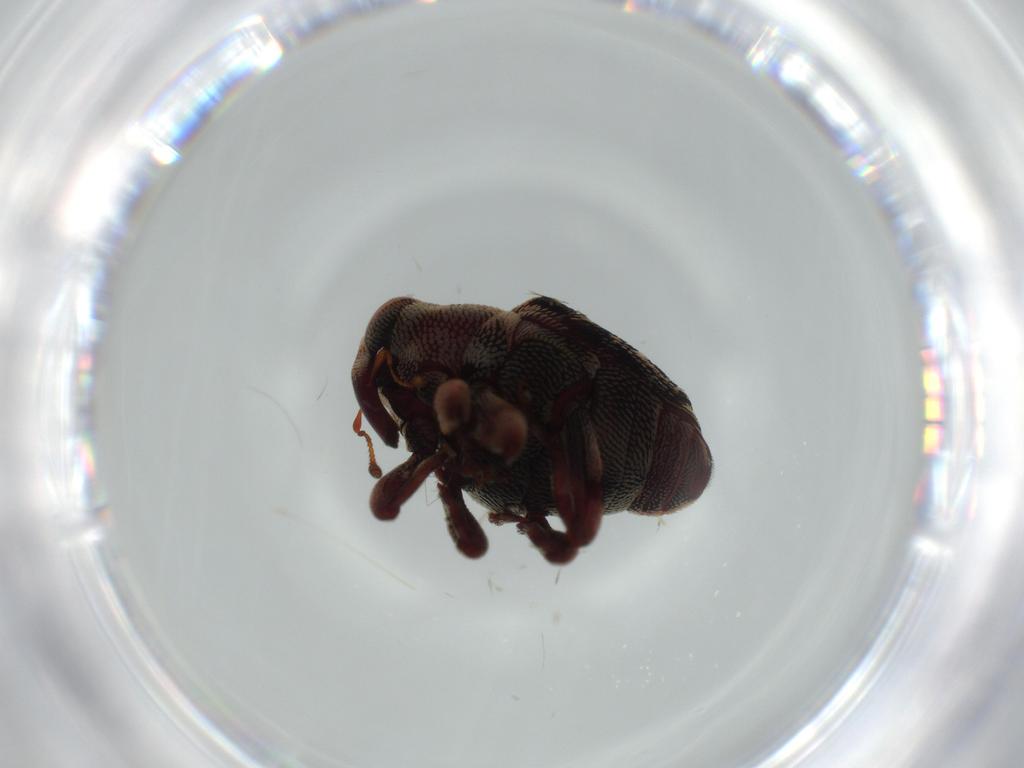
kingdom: Animalia
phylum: Arthropoda
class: Insecta
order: Coleoptera
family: Curculionidae
